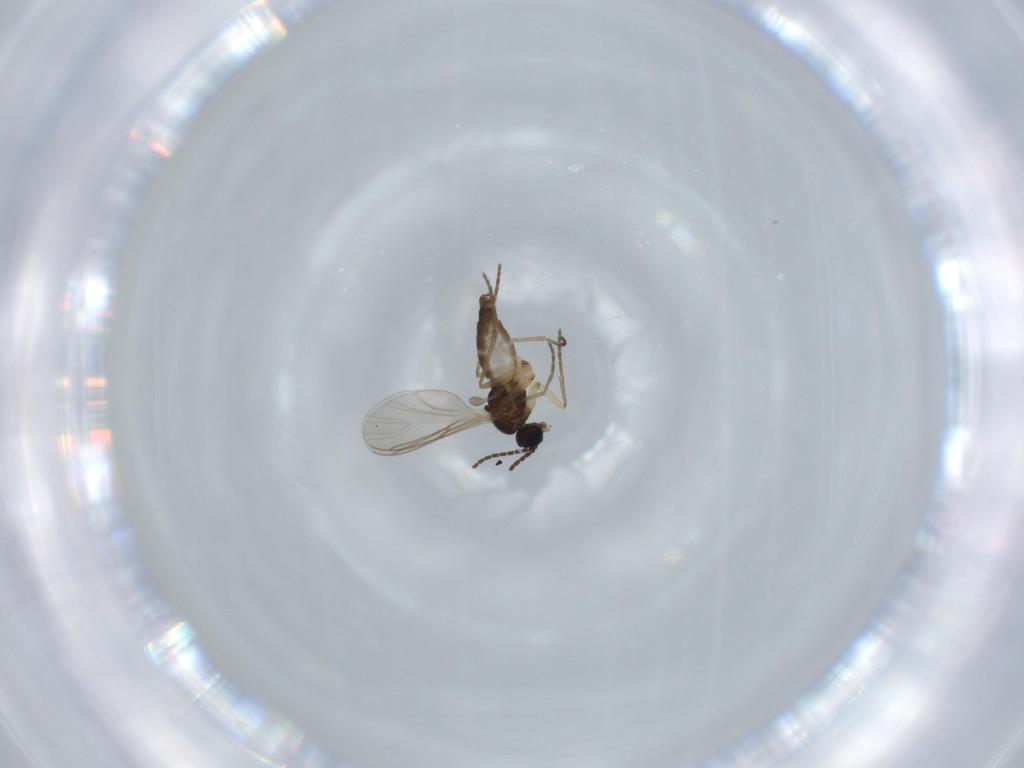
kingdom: Animalia
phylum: Arthropoda
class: Insecta
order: Diptera
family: Sciaridae
